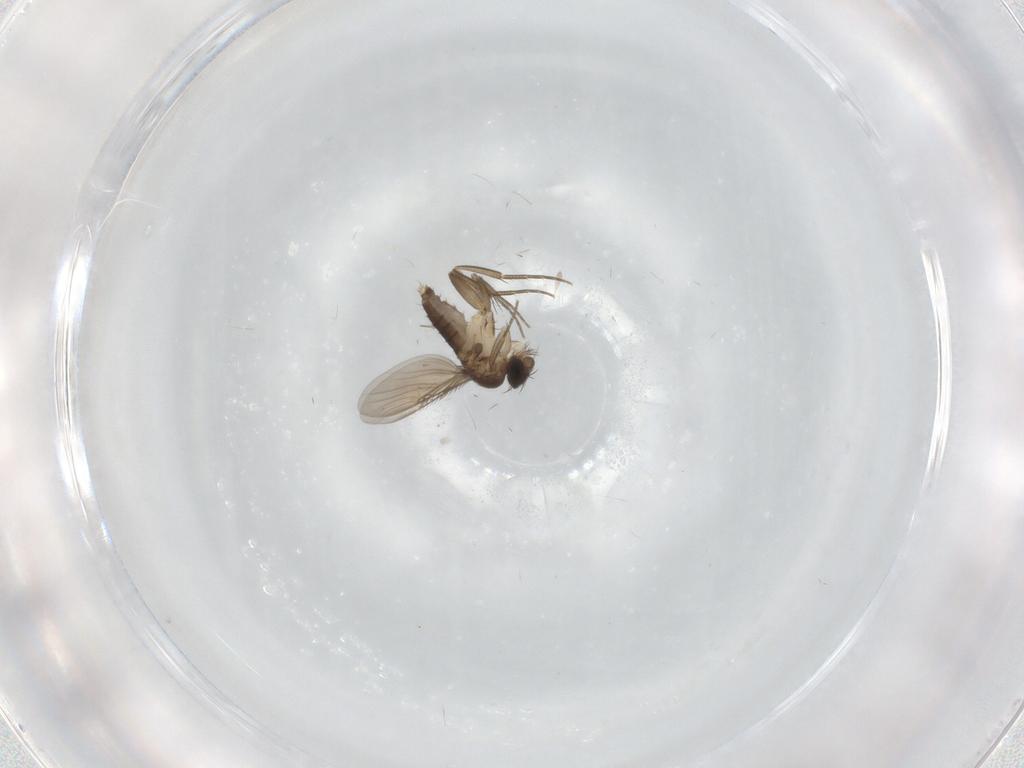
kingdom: Animalia
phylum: Arthropoda
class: Insecta
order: Diptera
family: Phoridae
